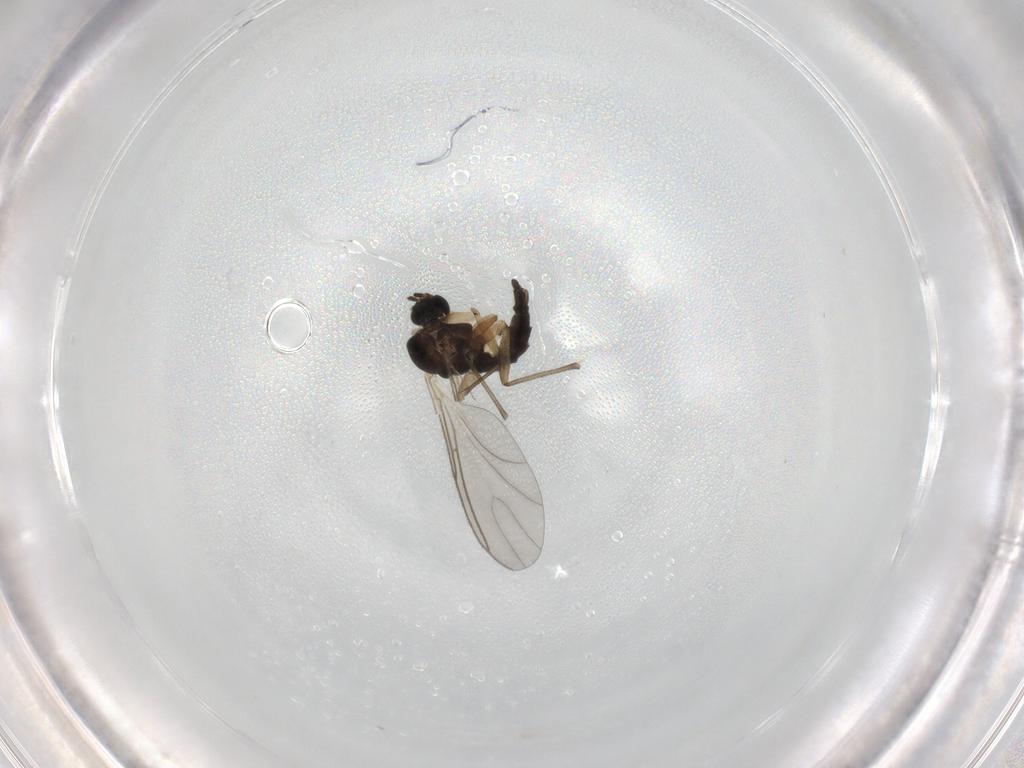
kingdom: Animalia
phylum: Arthropoda
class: Insecta
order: Diptera
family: Sciaridae
